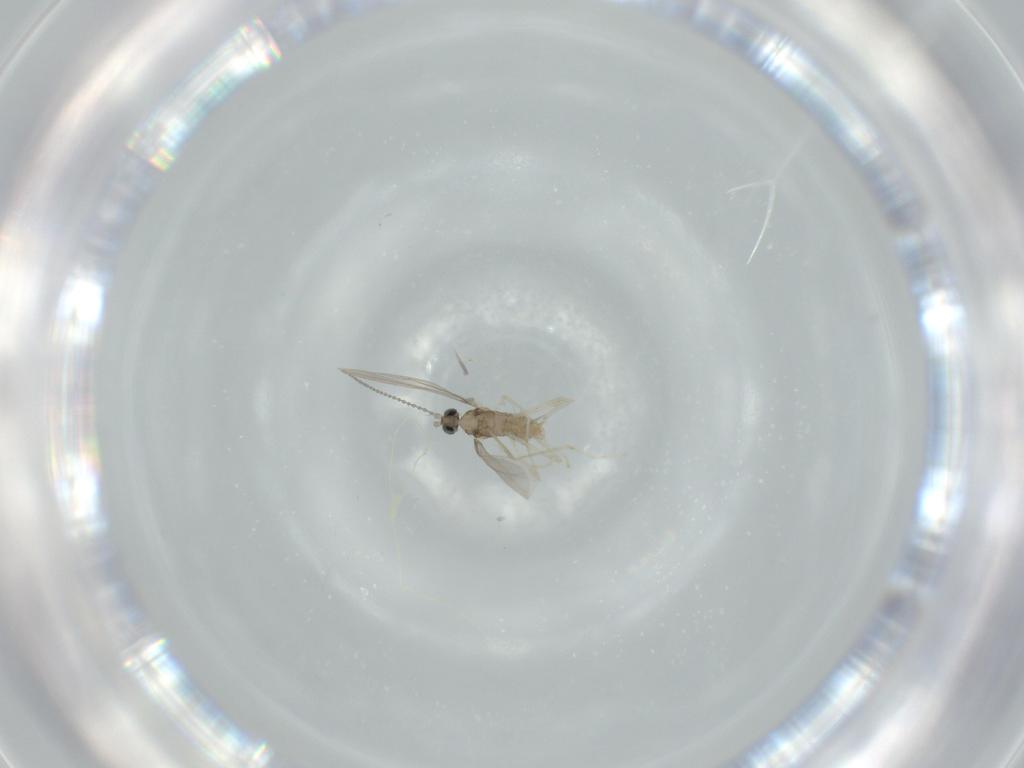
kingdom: Animalia
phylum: Arthropoda
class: Insecta
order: Diptera
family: Cecidomyiidae
